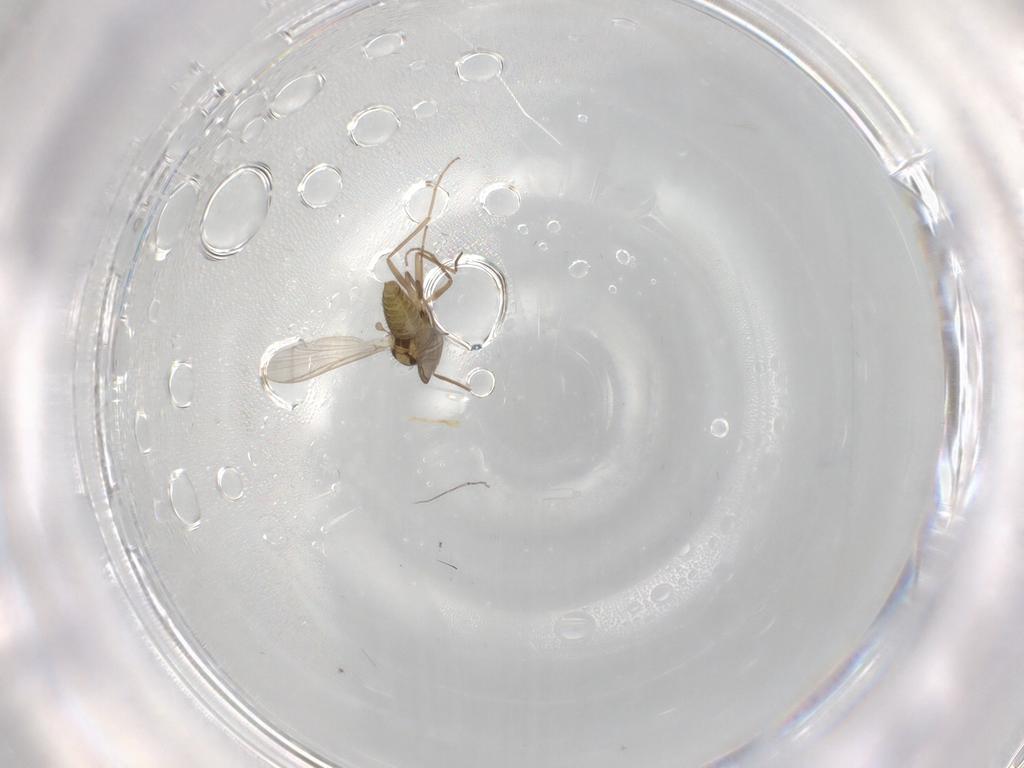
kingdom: Animalia
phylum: Arthropoda
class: Insecta
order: Diptera
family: Chironomidae
